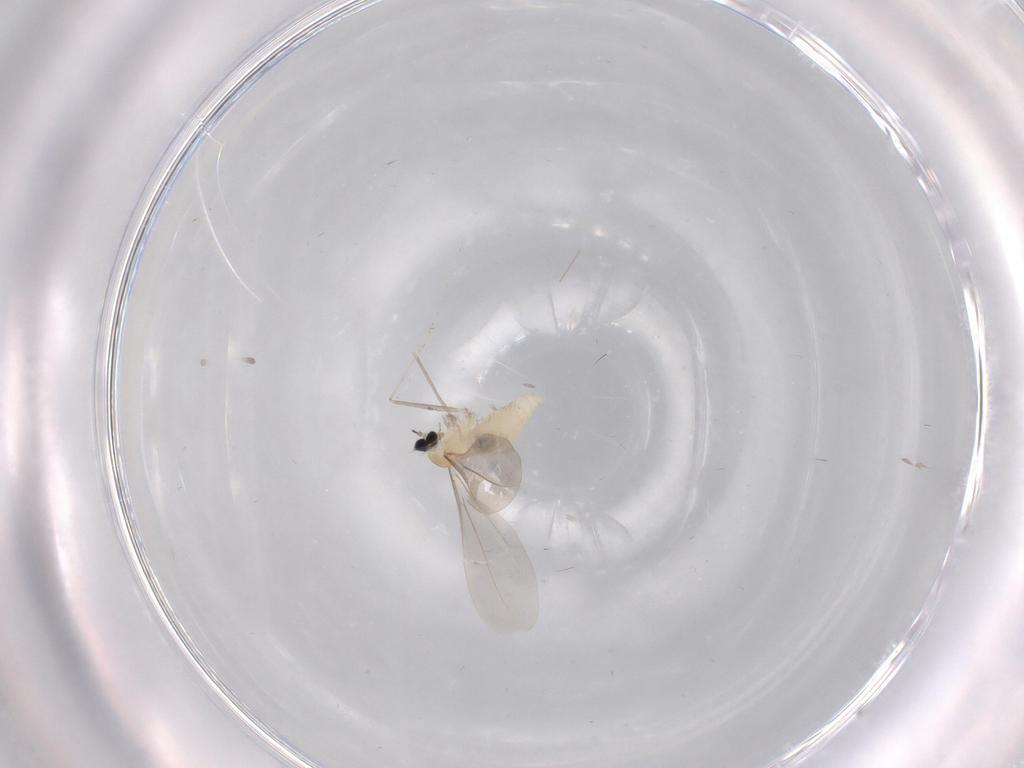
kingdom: Animalia
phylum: Arthropoda
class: Insecta
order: Diptera
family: Cecidomyiidae
